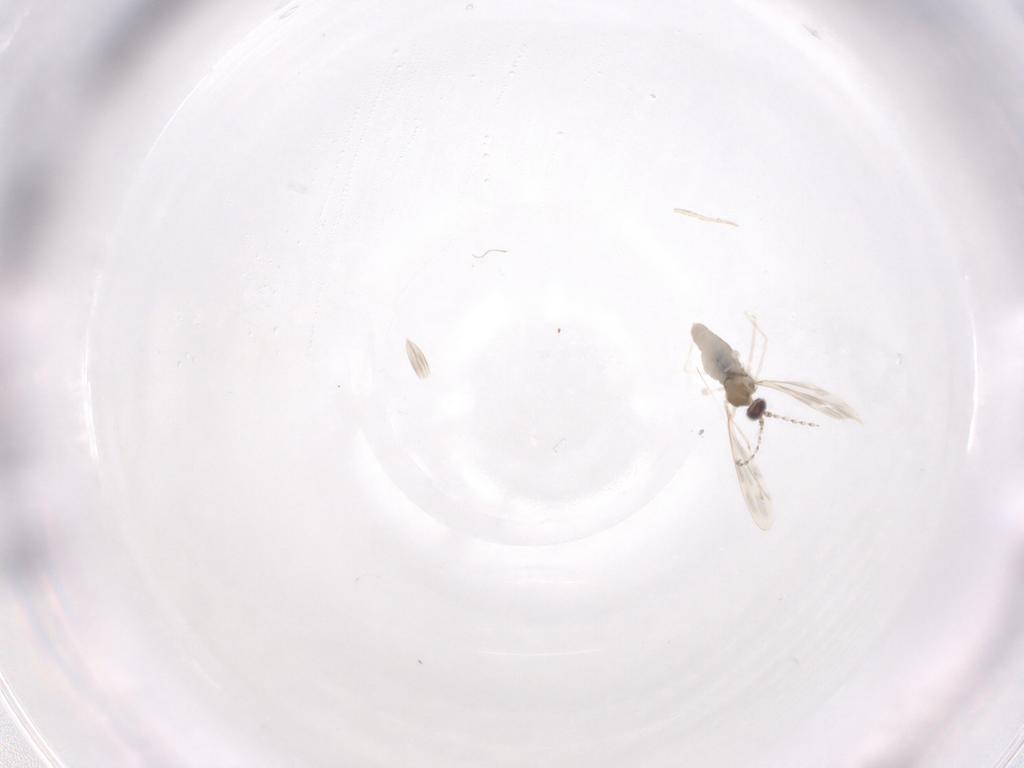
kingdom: Animalia
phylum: Arthropoda
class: Insecta
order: Diptera
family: Cecidomyiidae
